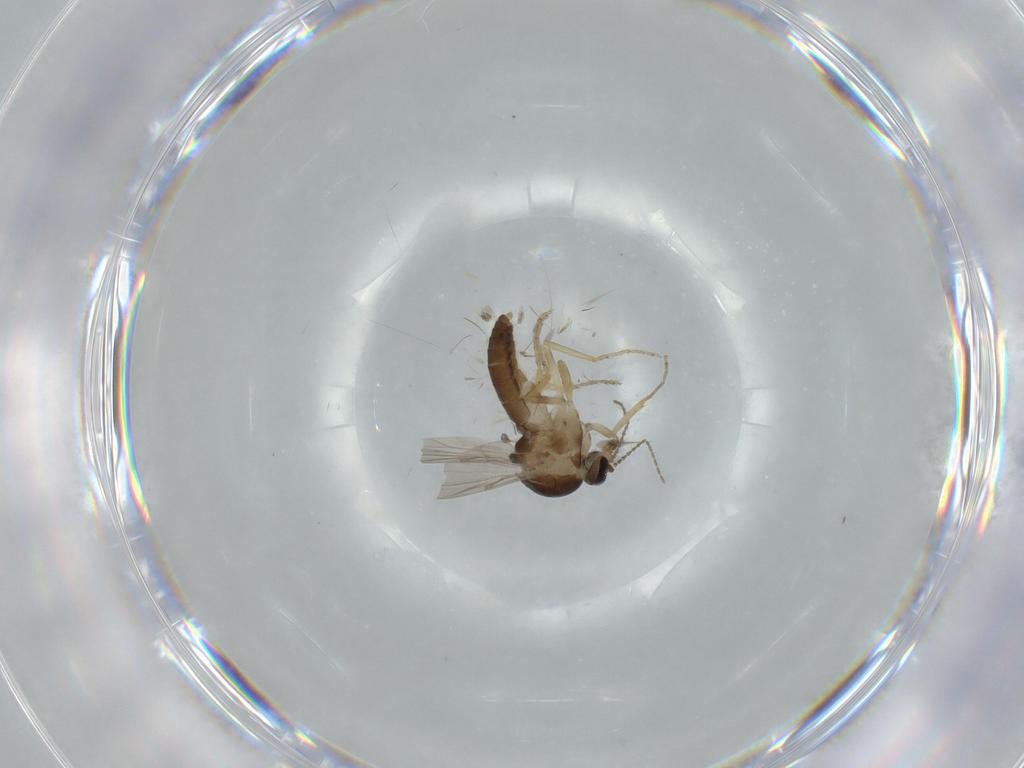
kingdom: Animalia
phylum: Arthropoda
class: Insecta
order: Diptera
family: Ceratopogonidae
